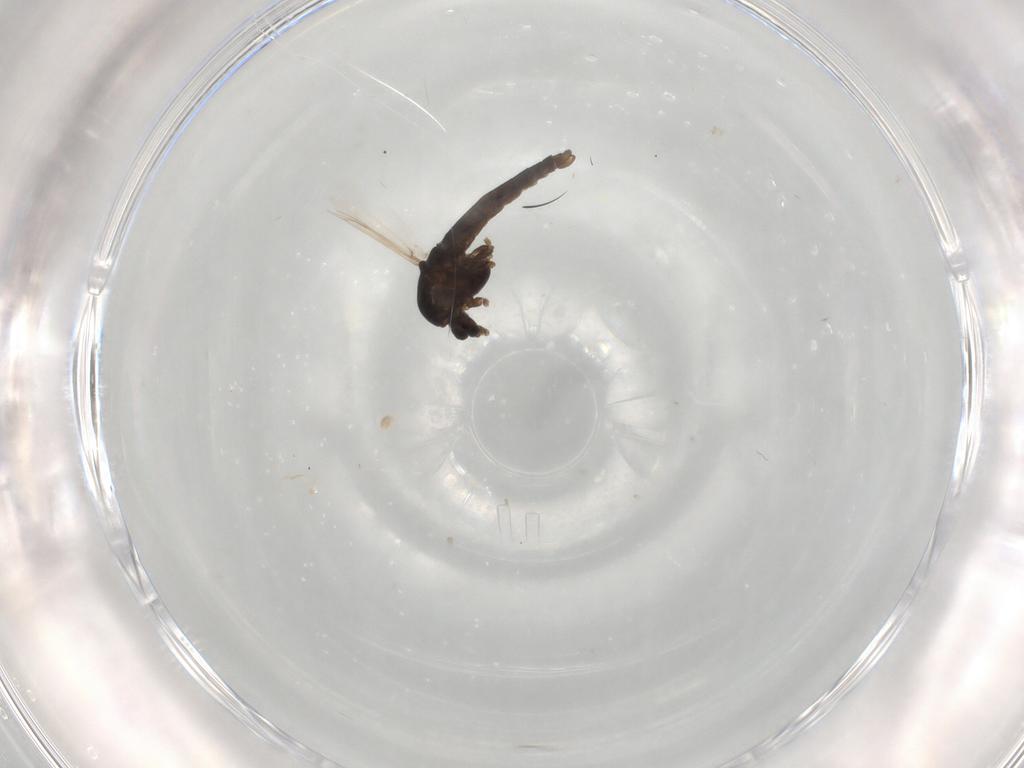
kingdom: Animalia
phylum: Arthropoda
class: Insecta
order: Diptera
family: Chironomidae
